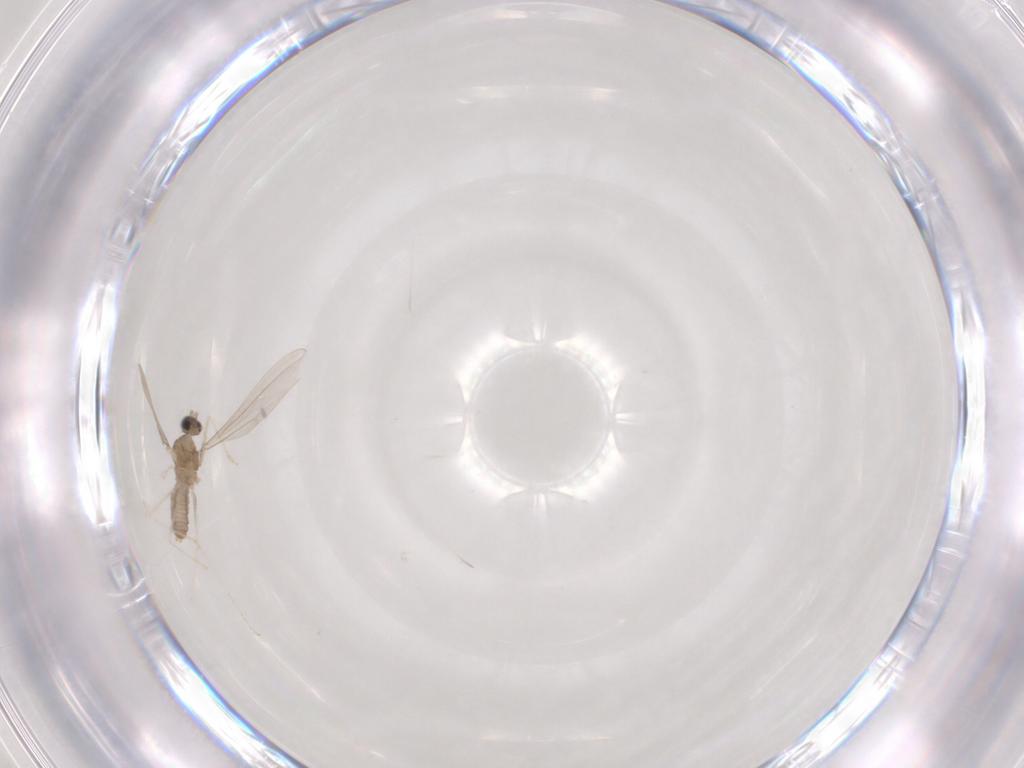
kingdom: Animalia
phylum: Arthropoda
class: Insecta
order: Diptera
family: Cecidomyiidae
